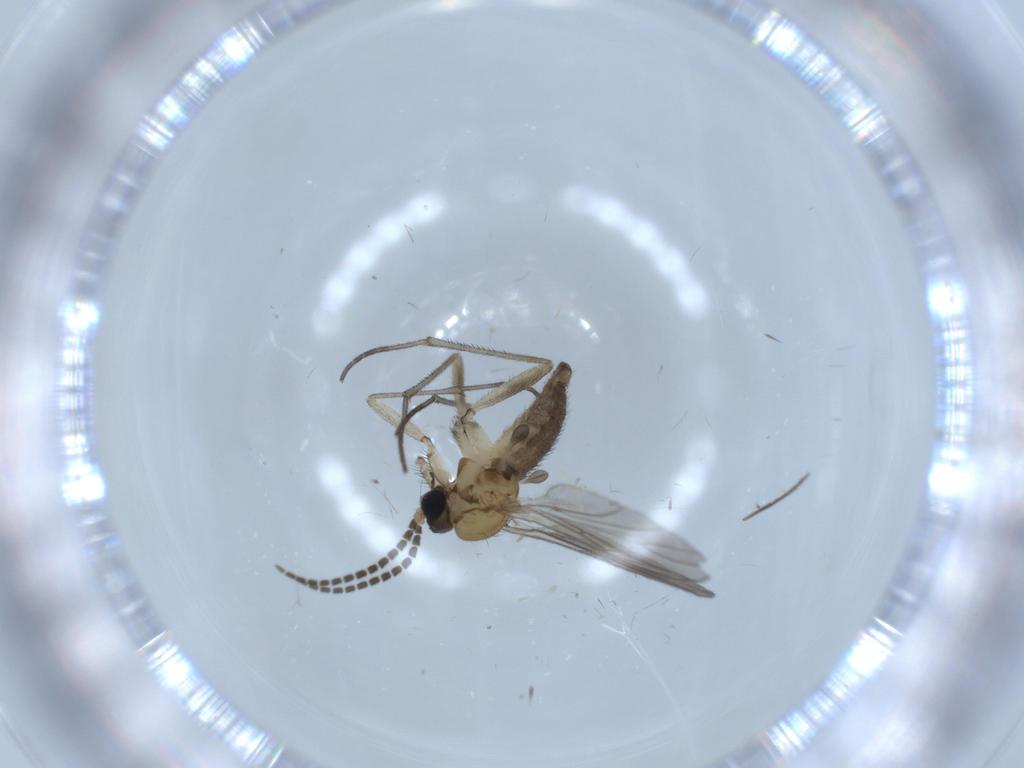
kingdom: Animalia
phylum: Arthropoda
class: Insecta
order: Diptera
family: Sciaridae
